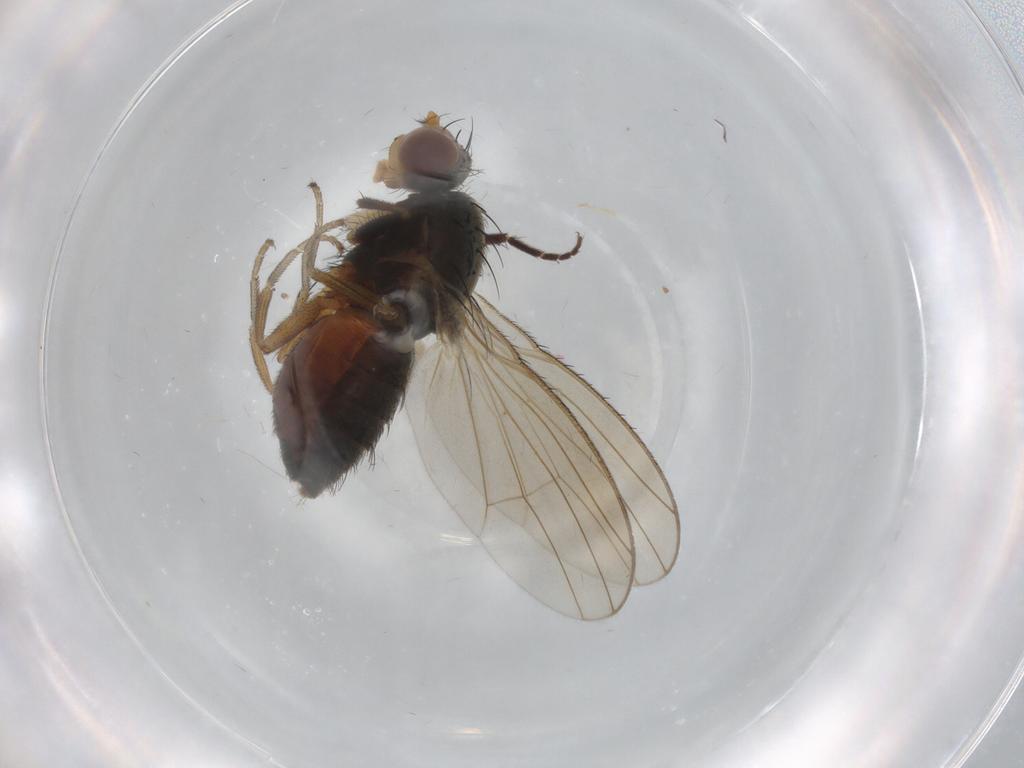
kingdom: Animalia
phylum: Arthropoda
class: Insecta
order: Diptera
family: Heleomyzidae
